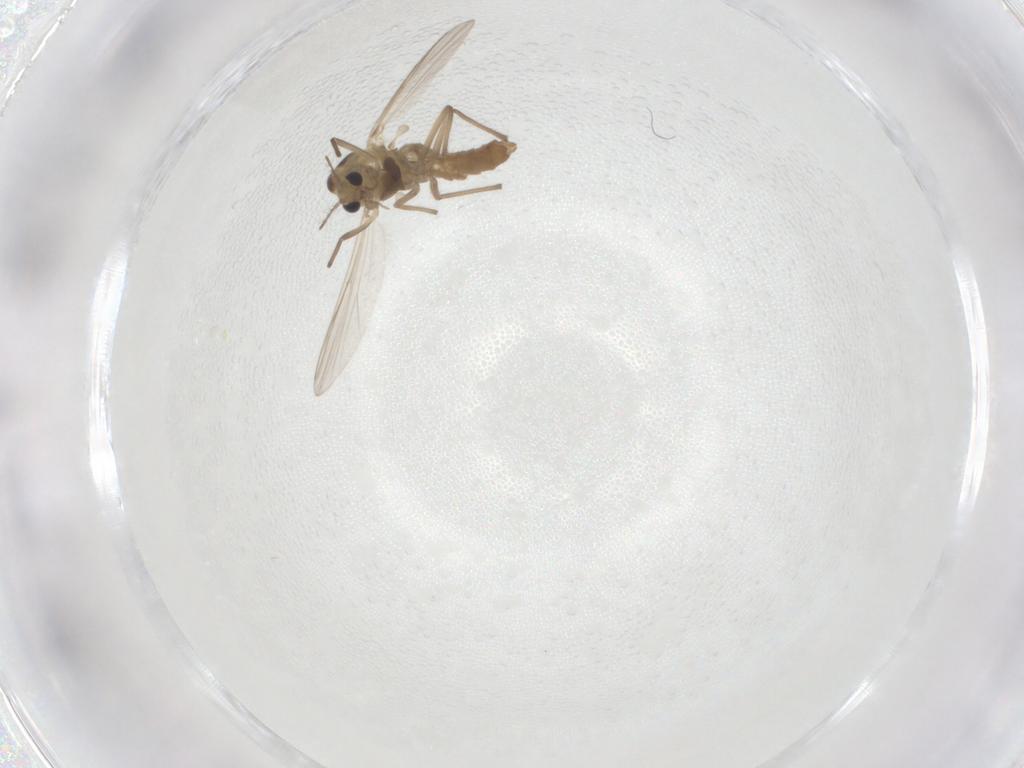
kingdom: Animalia
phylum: Arthropoda
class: Insecta
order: Diptera
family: Chironomidae
